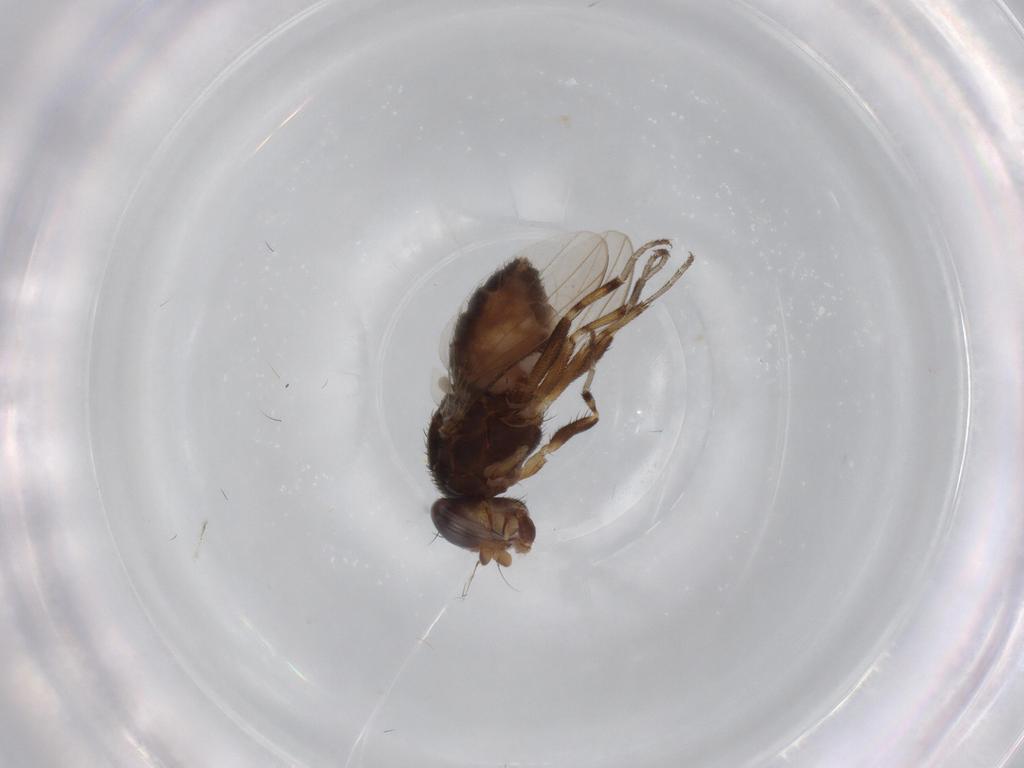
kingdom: Animalia
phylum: Arthropoda
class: Insecta
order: Diptera
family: Heleomyzidae
